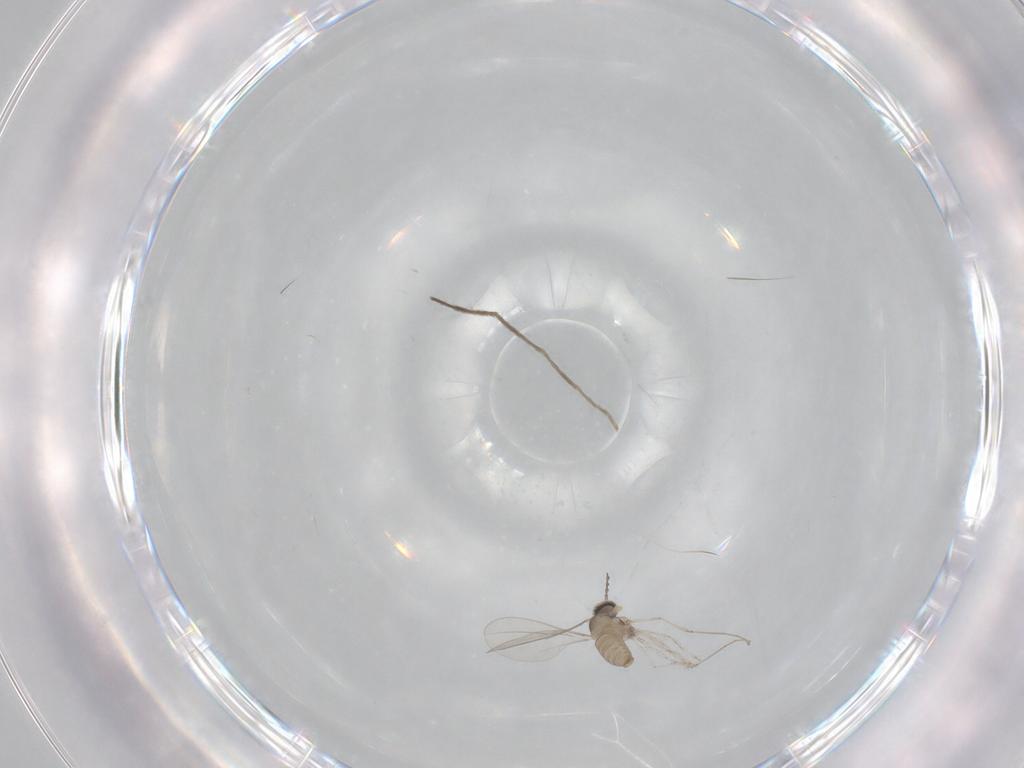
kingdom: Animalia
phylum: Arthropoda
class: Insecta
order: Diptera
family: Cecidomyiidae
